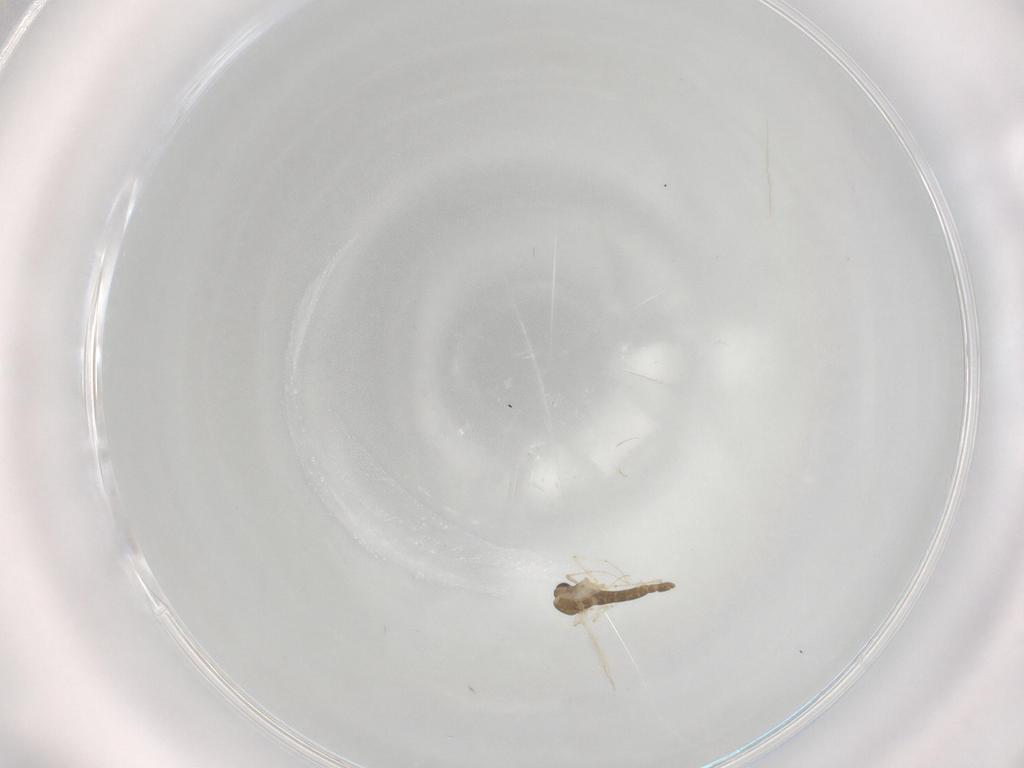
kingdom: Animalia
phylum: Arthropoda
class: Insecta
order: Diptera
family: Chironomidae
